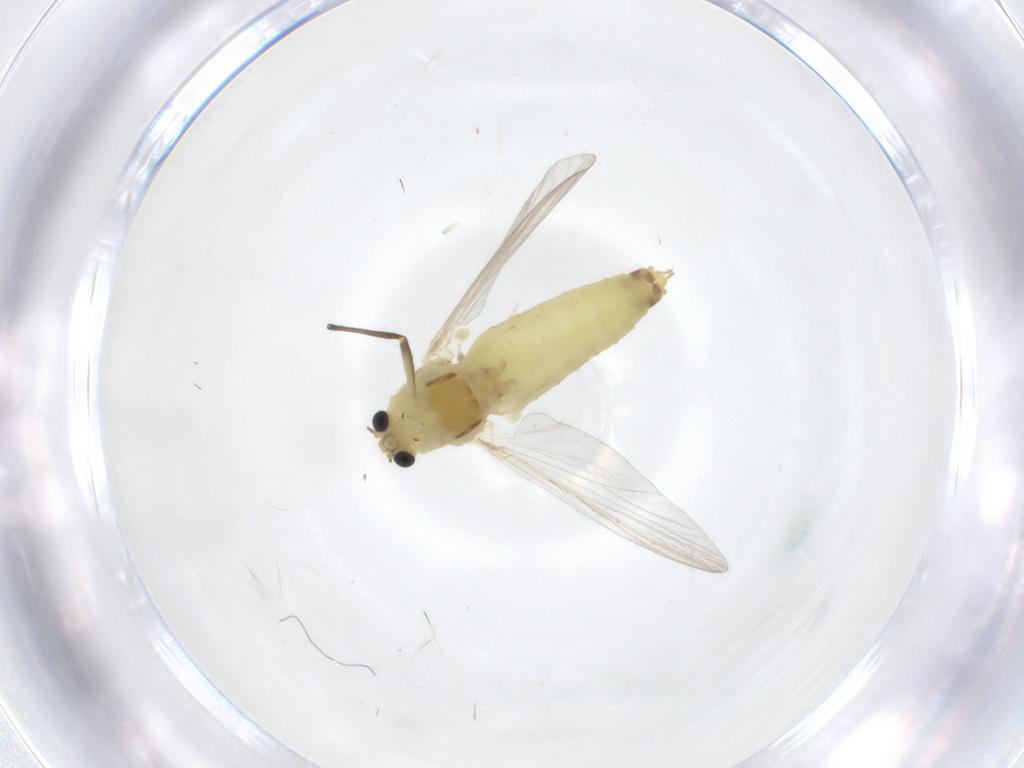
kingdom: Animalia
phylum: Arthropoda
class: Insecta
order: Diptera
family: Chironomidae
